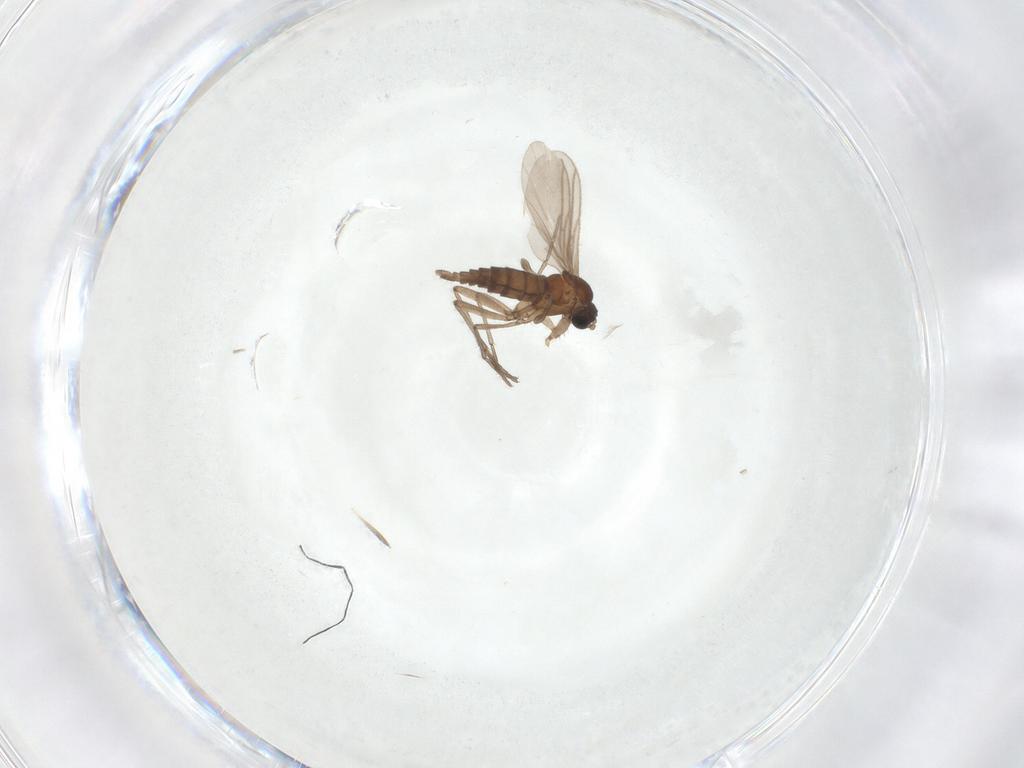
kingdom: Animalia
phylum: Arthropoda
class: Insecta
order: Diptera
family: Sciaridae
